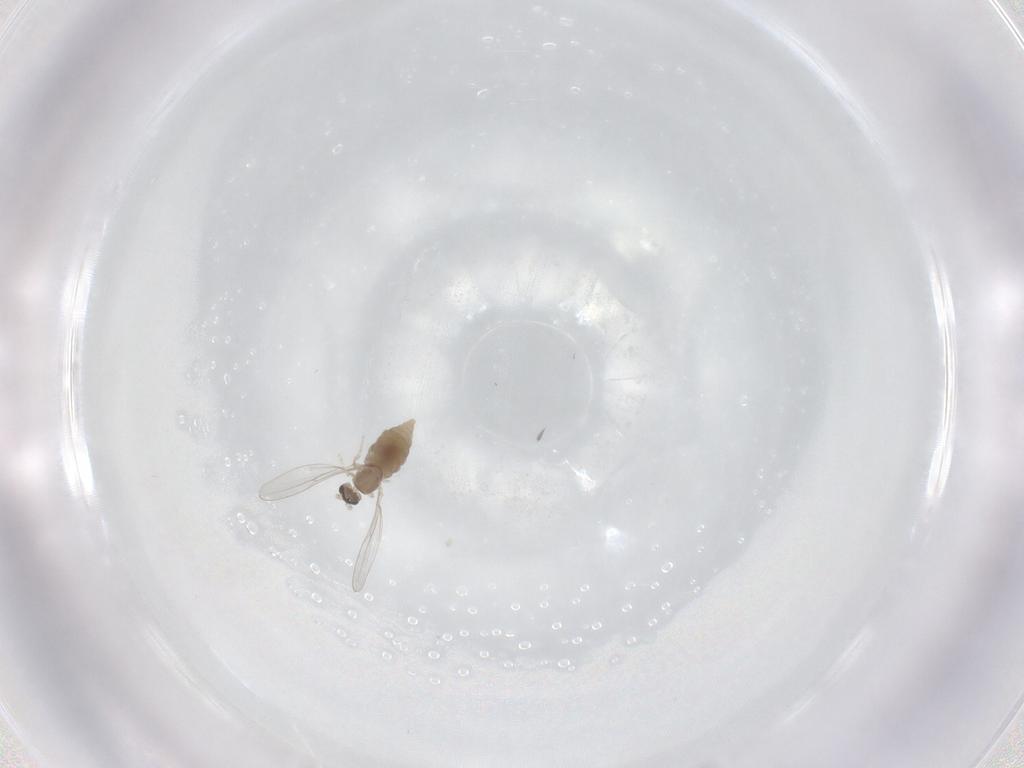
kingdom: Animalia
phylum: Arthropoda
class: Insecta
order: Diptera
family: Cecidomyiidae
